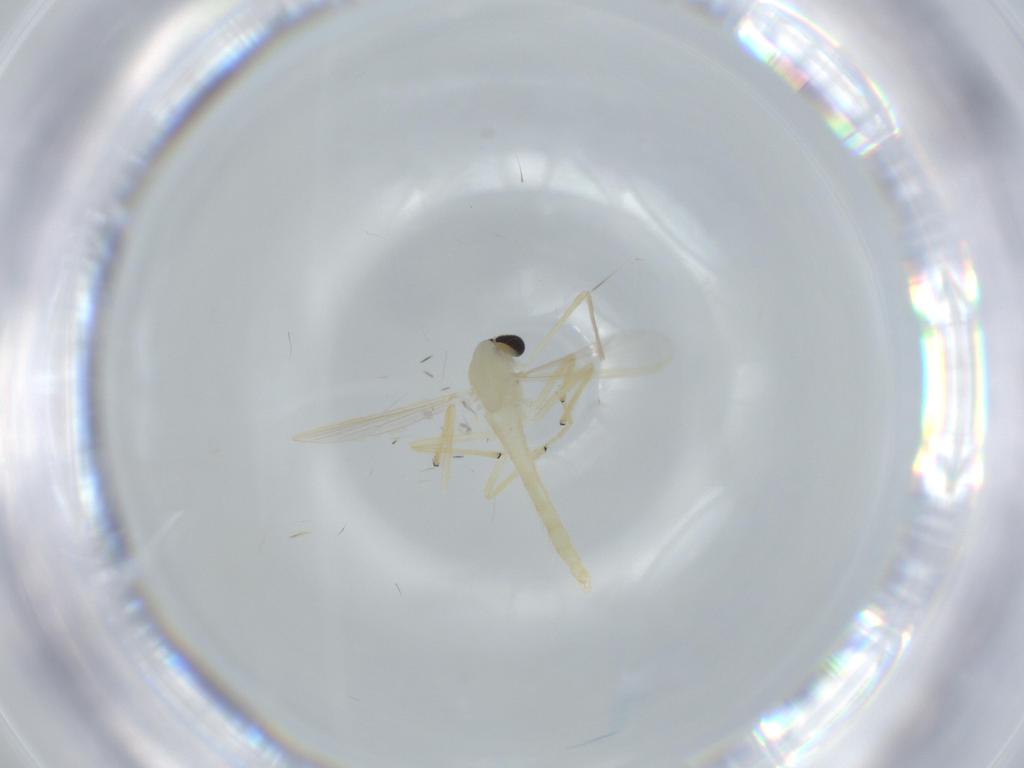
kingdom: Animalia
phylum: Arthropoda
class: Insecta
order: Diptera
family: Chironomidae
